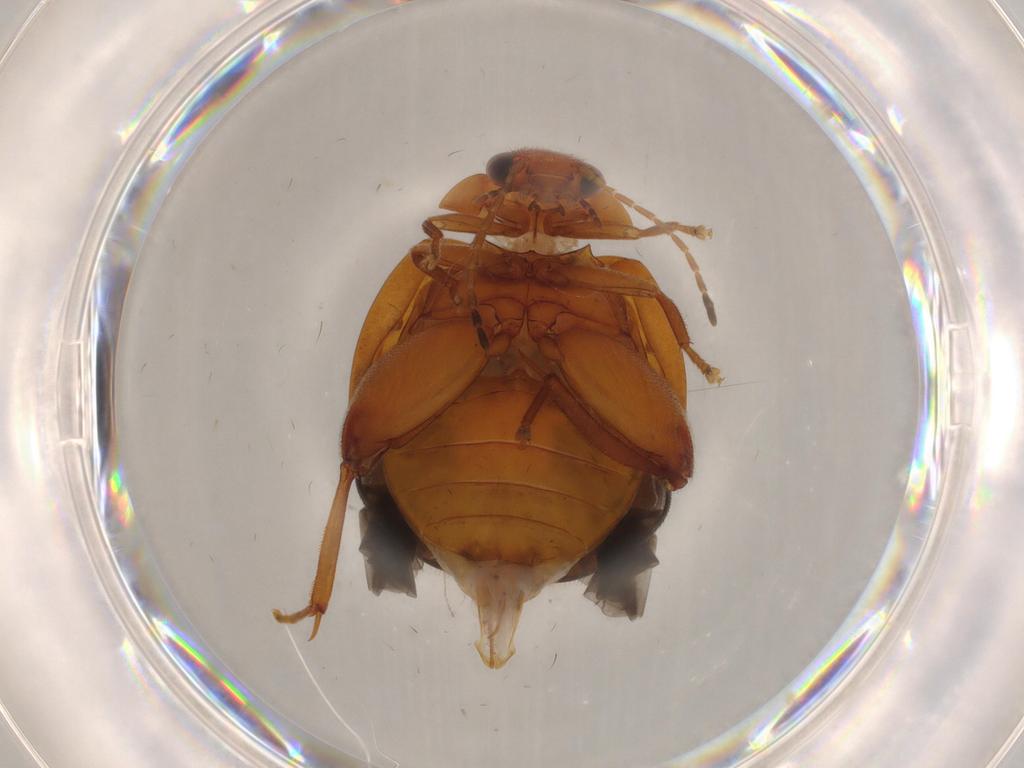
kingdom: Animalia
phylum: Arthropoda
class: Insecta
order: Coleoptera
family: Scirtidae
